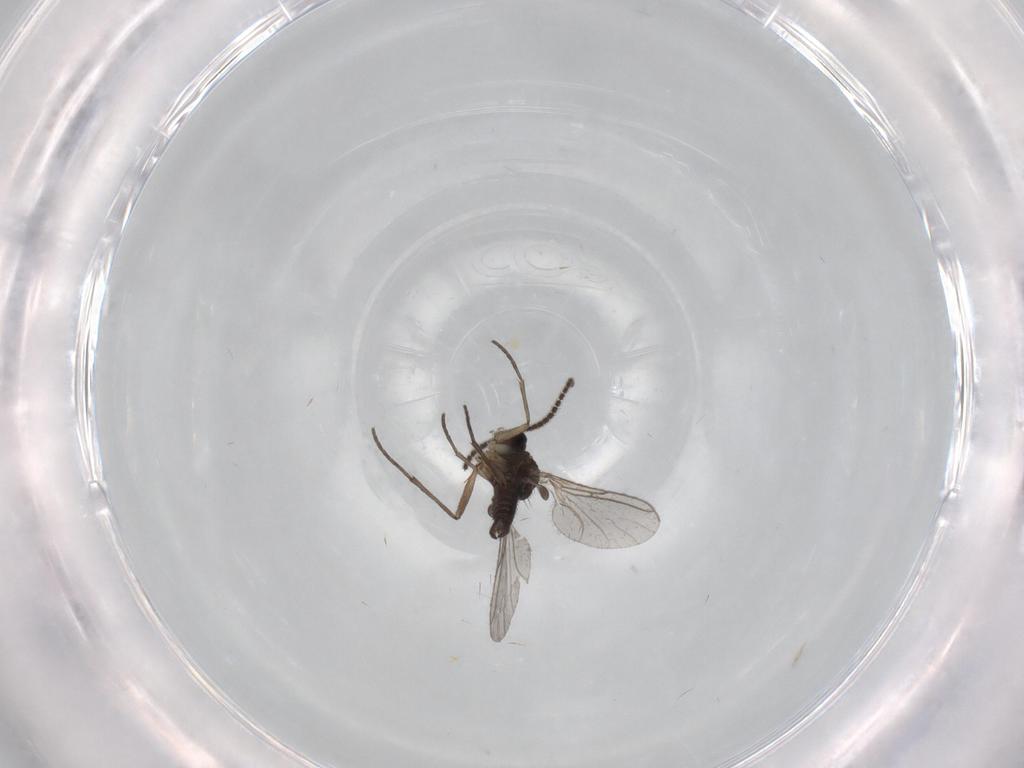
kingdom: Animalia
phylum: Arthropoda
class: Insecta
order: Diptera
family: Sciaridae
